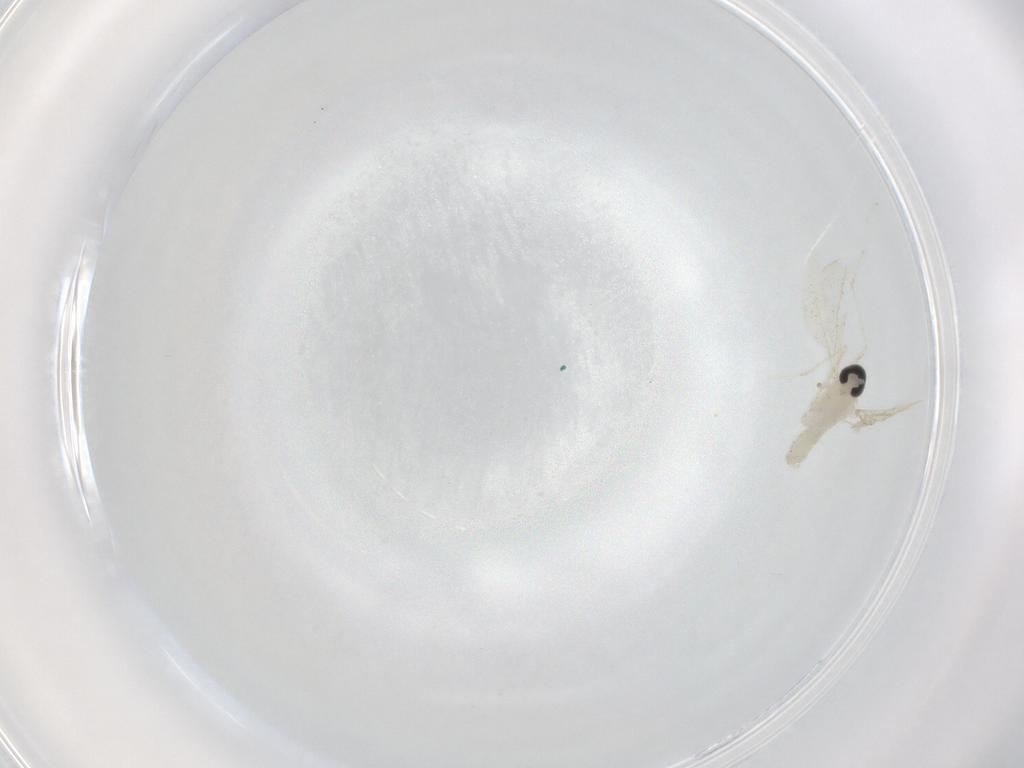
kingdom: Animalia
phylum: Arthropoda
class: Insecta
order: Diptera
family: Cecidomyiidae
